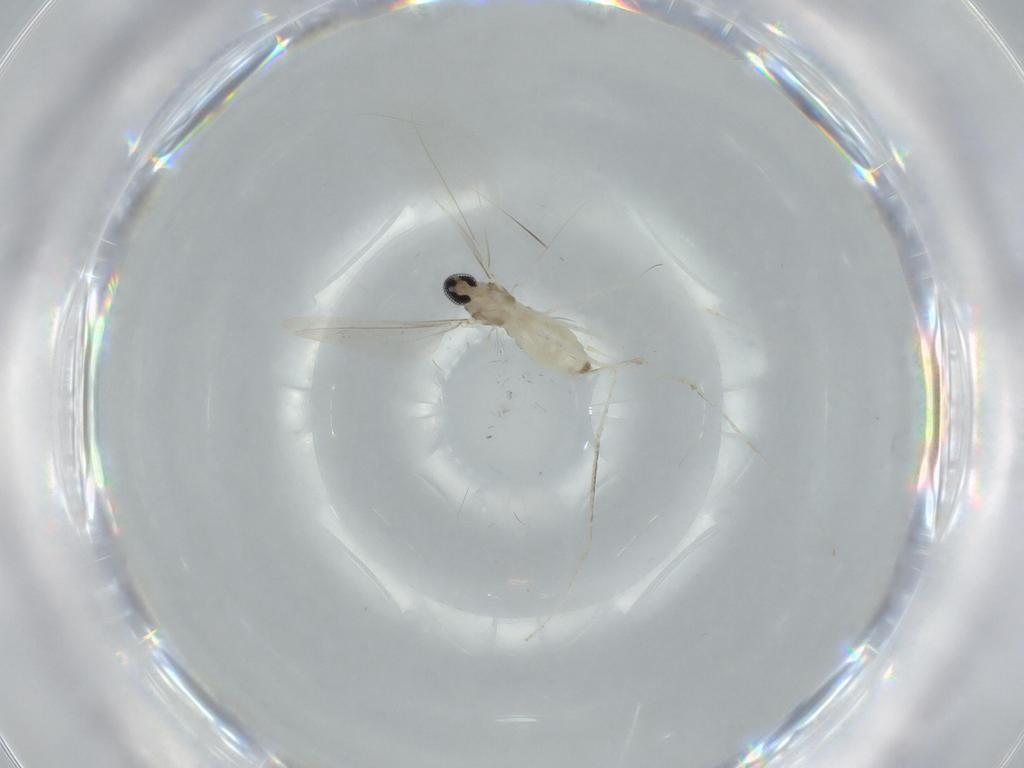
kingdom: Animalia
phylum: Arthropoda
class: Insecta
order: Diptera
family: Cecidomyiidae
